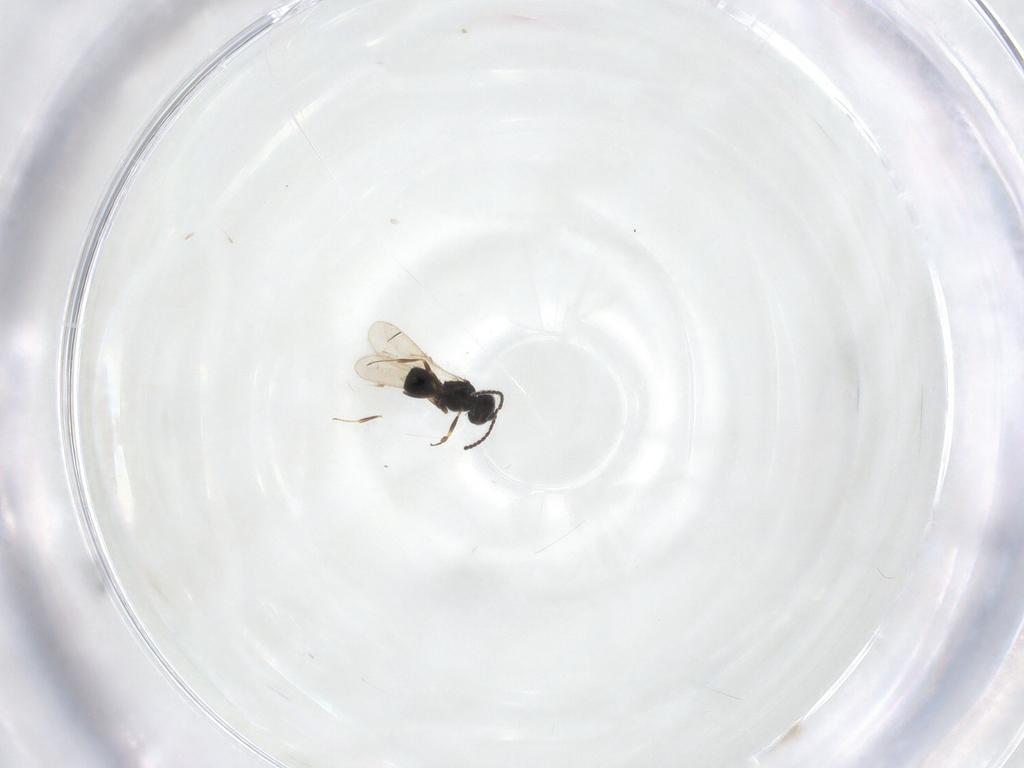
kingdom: Animalia
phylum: Arthropoda
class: Insecta
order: Hymenoptera
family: Scelionidae
